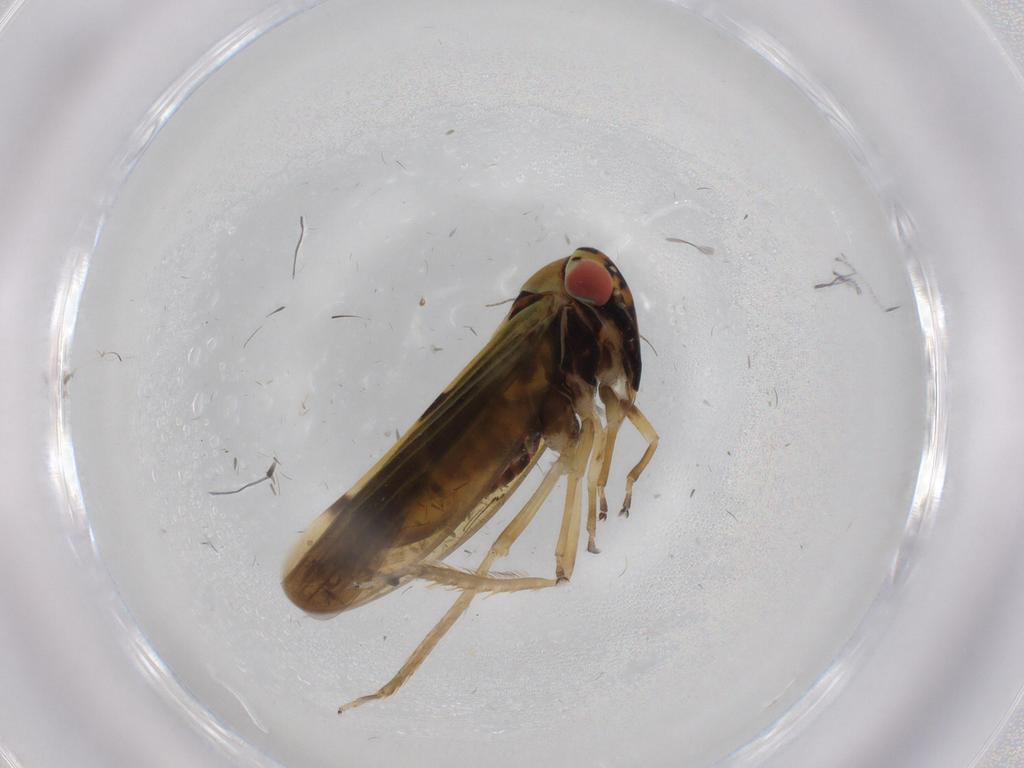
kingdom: Animalia
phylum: Arthropoda
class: Insecta
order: Hemiptera
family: Cicadellidae
